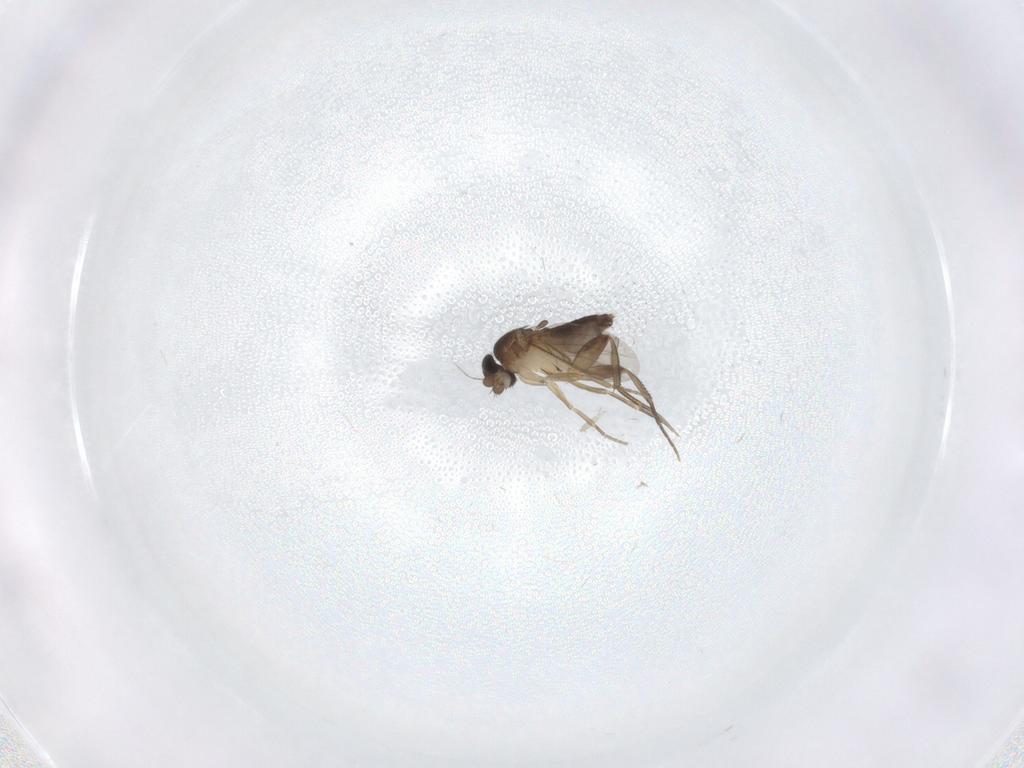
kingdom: Animalia
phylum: Arthropoda
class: Insecta
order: Diptera
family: Phoridae
